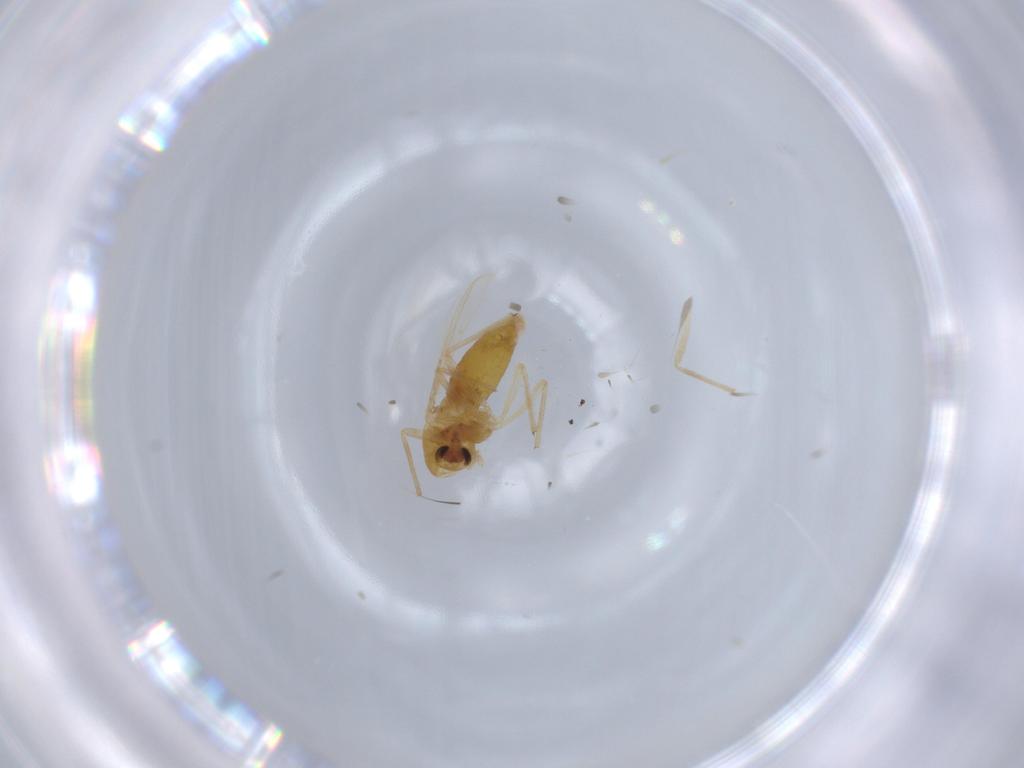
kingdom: Animalia
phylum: Arthropoda
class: Insecta
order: Diptera
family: Chironomidae
